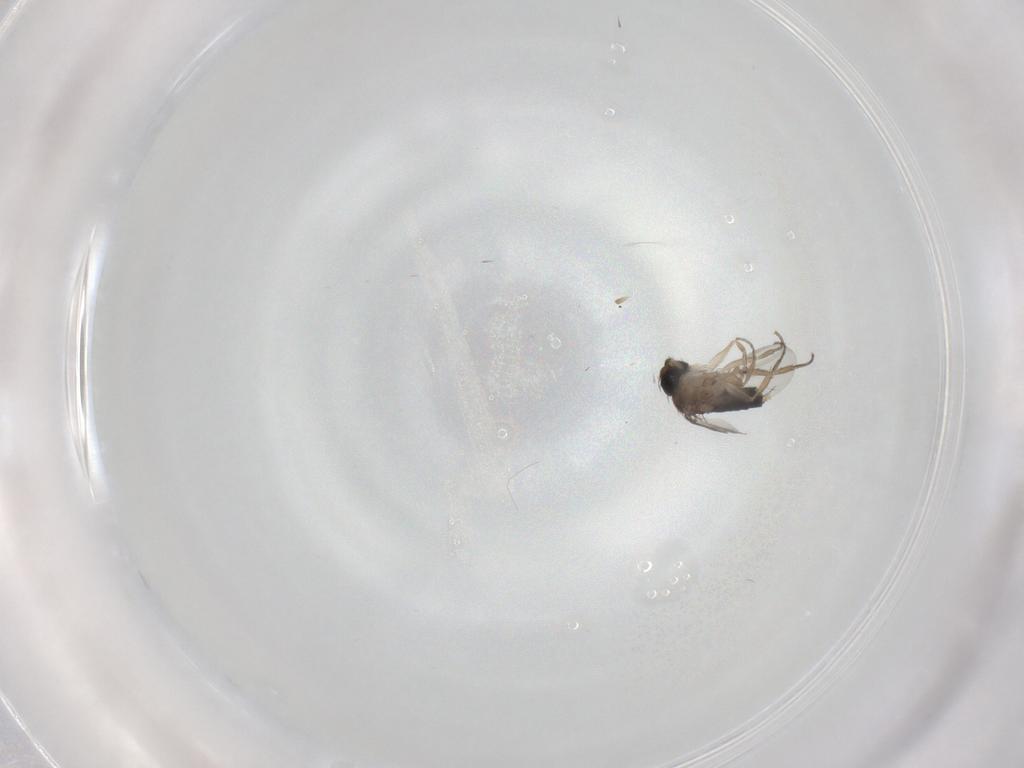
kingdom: Animalia
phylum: Arthropoda
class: Insecta
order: Diptera
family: Phoridae
